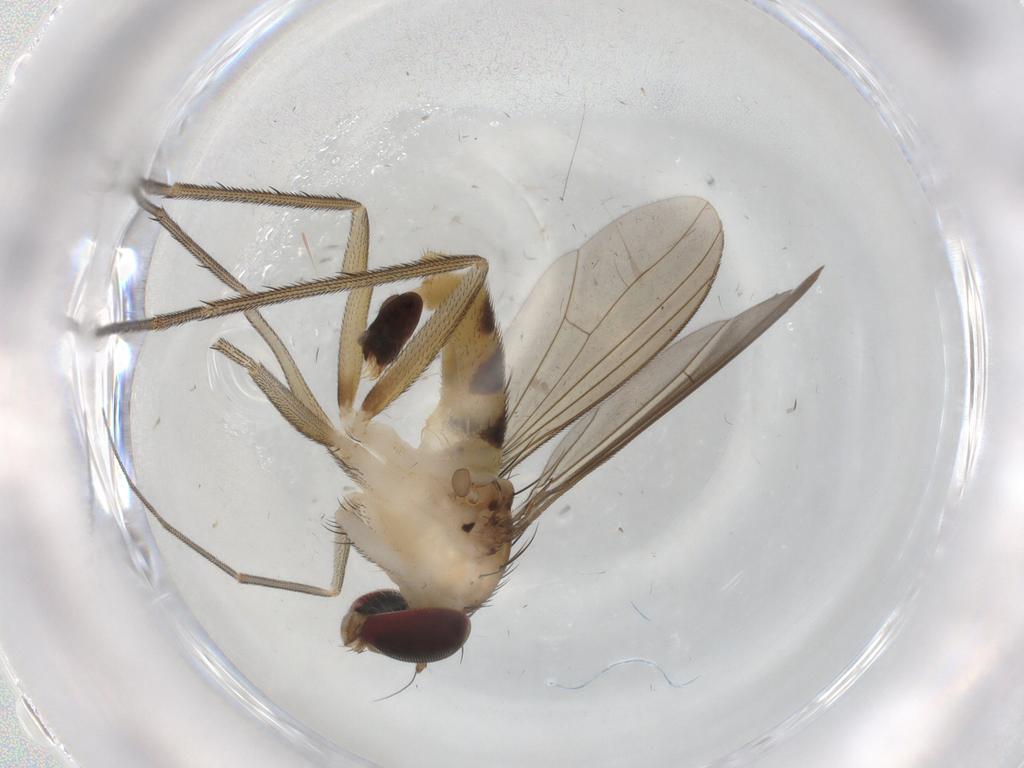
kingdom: Animalia
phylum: Arthropoda
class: Insecta
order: Diptera
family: Dolichopodidae
